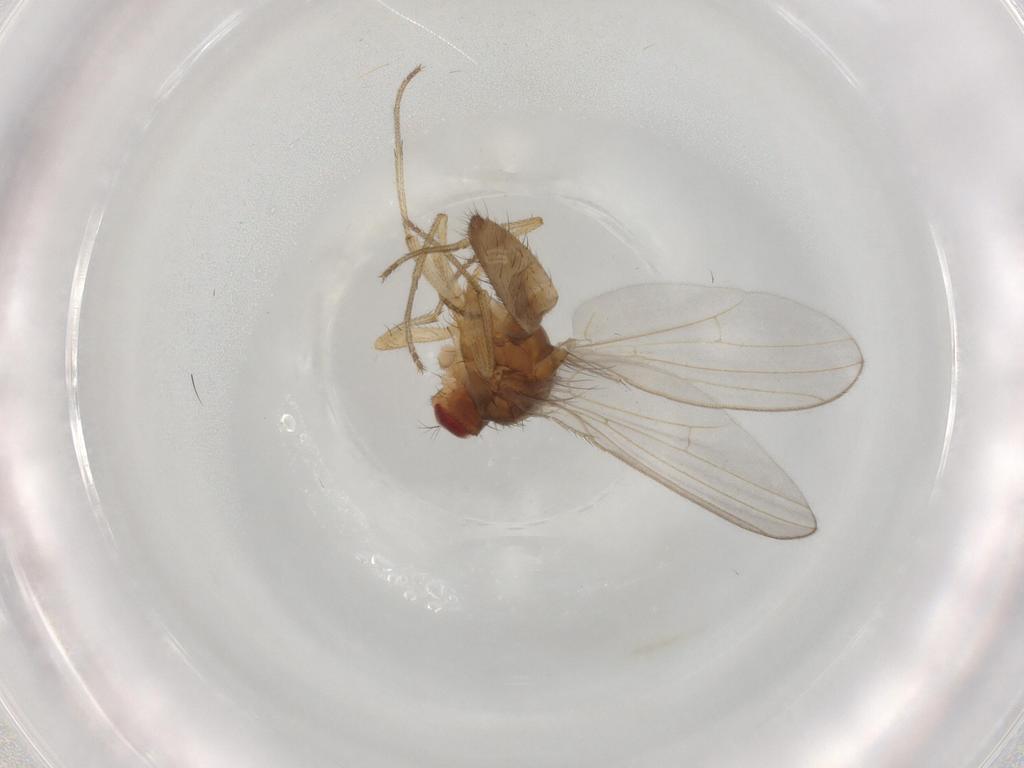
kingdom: Animalia
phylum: Arthropoda
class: Insecta
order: Diptera
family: Drosophilidae
